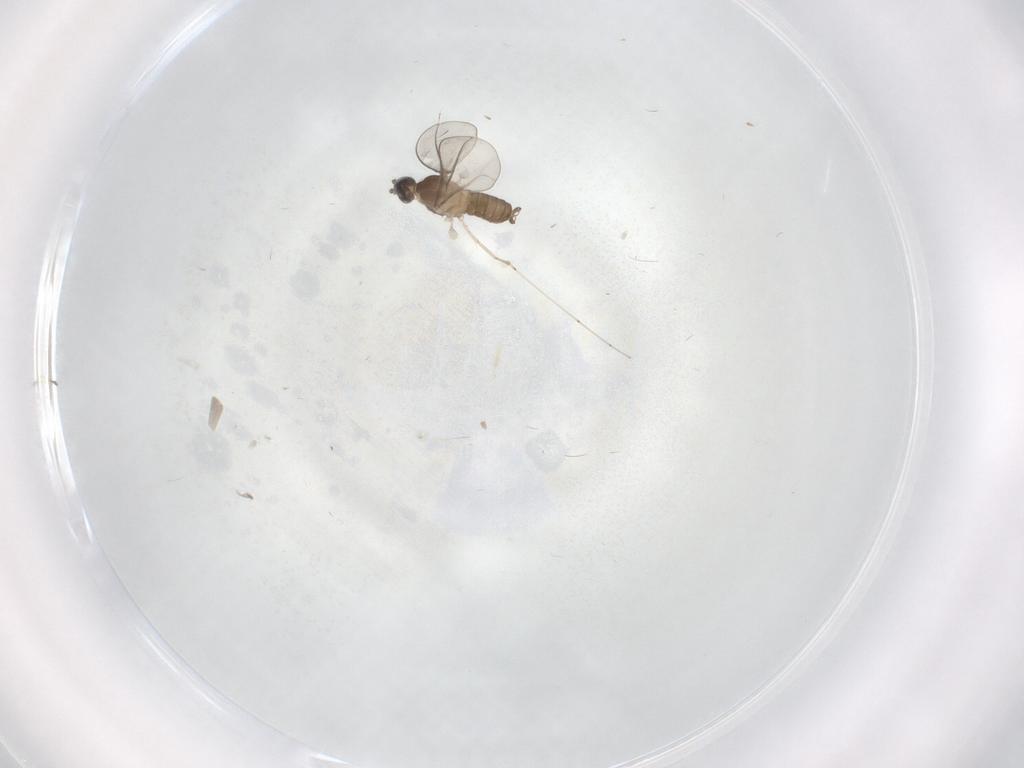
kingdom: Animalia
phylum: Arthropoda
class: Insecta
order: Diptera
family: Cecidomyiidae
